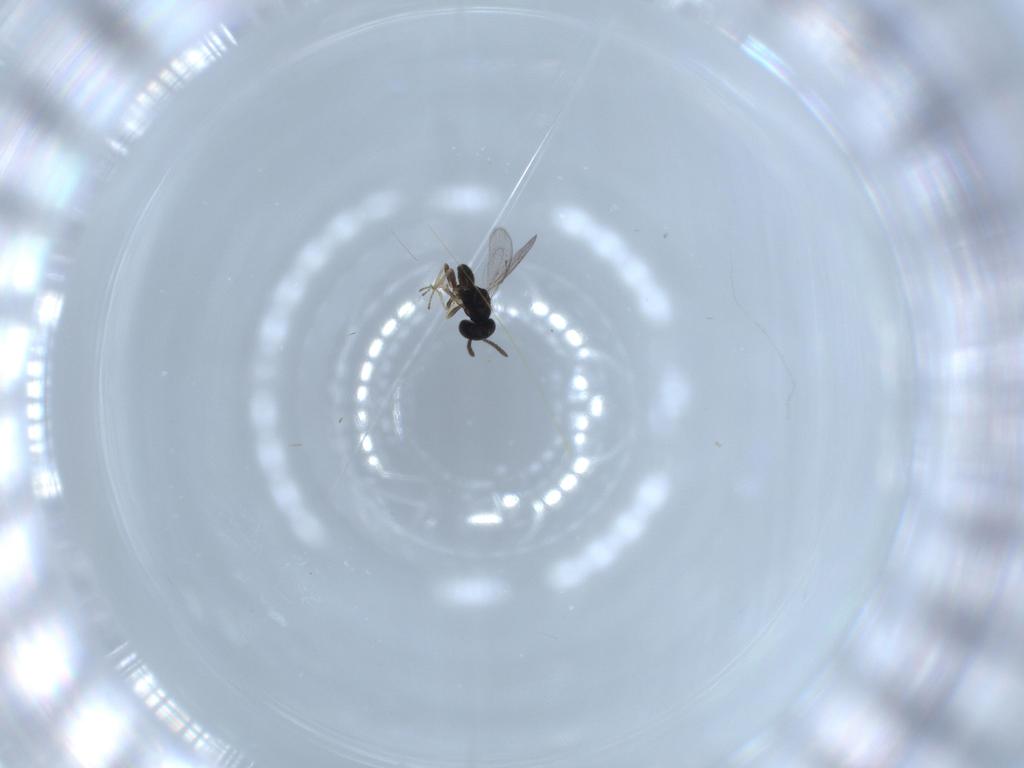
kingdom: Animalia
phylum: Arthropoda
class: Insecta
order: Hymenoptera
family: Pteromalidae
